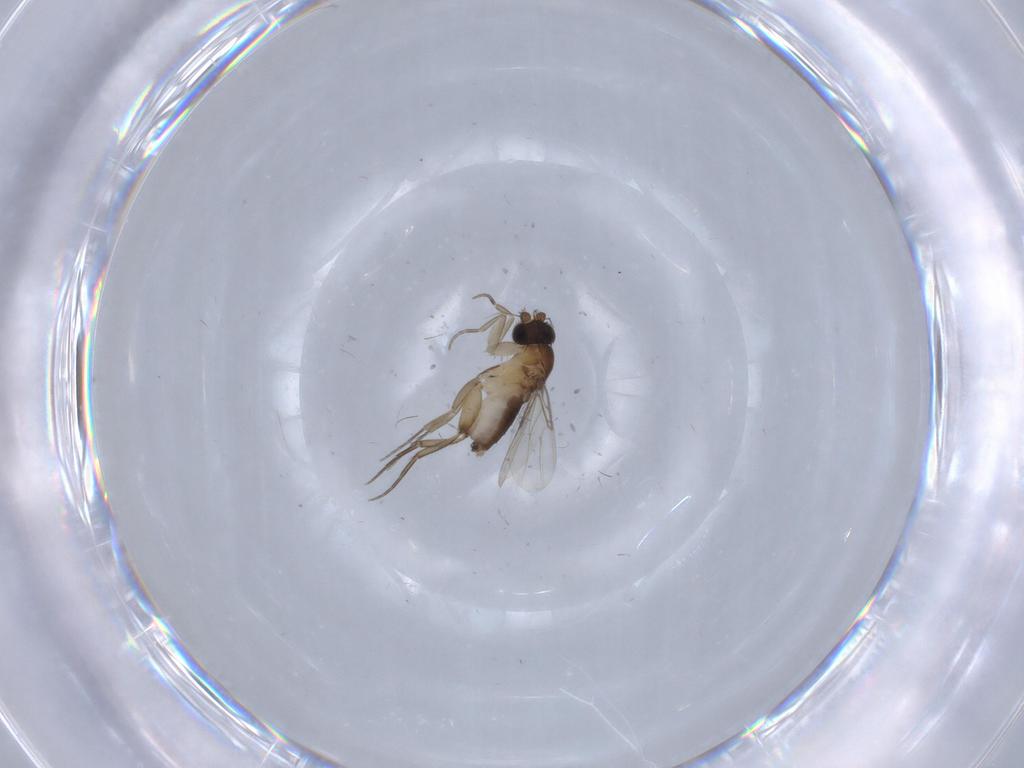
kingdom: Animalia
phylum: Arthropoda
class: Insecta
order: Diptera
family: Phoridae
